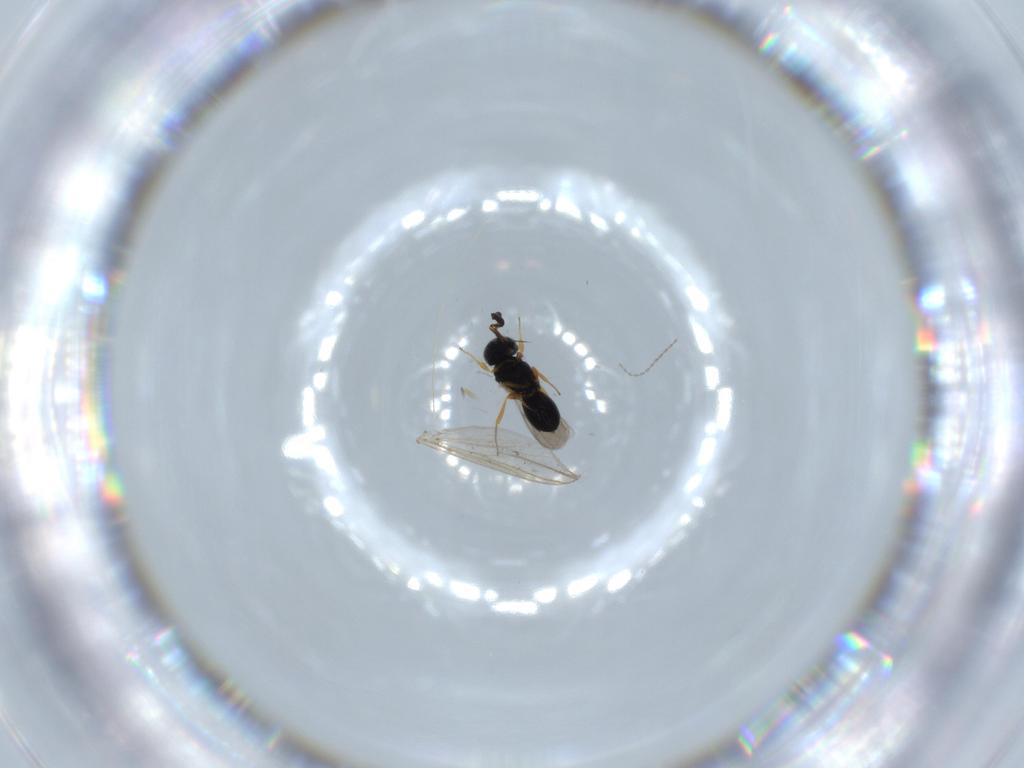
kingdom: Animalia
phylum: Arthropoda
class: Insecta
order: Hymenoptera
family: Scelionidae
